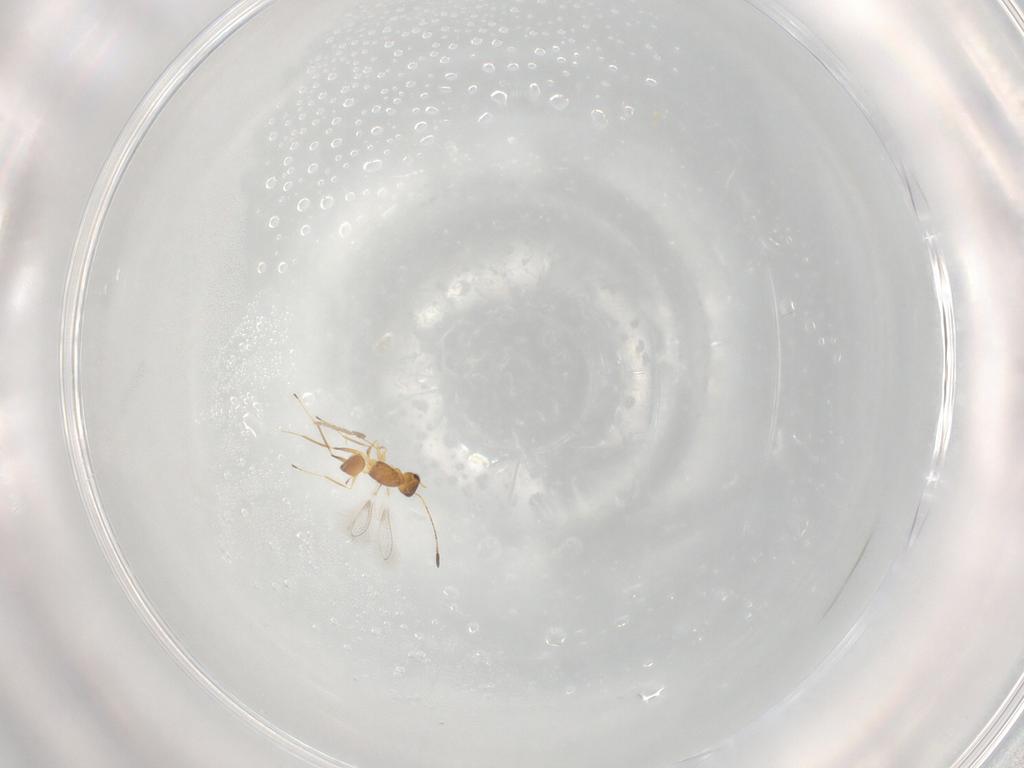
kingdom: Animalia
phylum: Arthropoda
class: Insecta
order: Hymenoptera
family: Mymaridae
